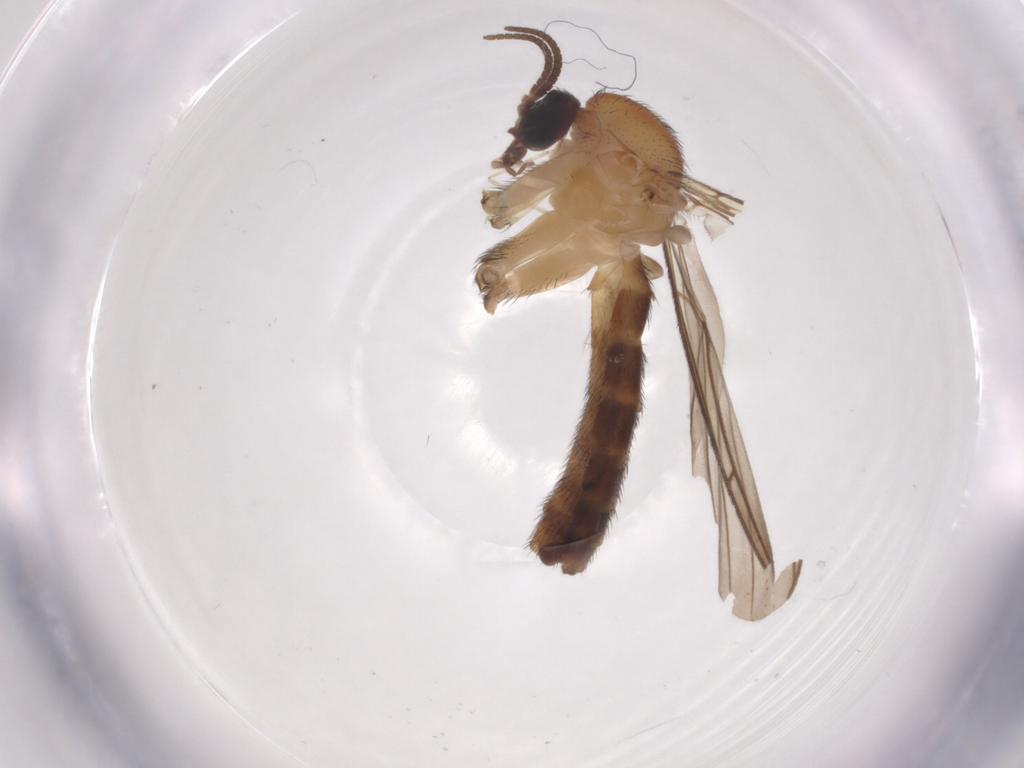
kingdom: Animalia
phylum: Arthropoda
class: Insecta
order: Diptera
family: Keroplatidae
